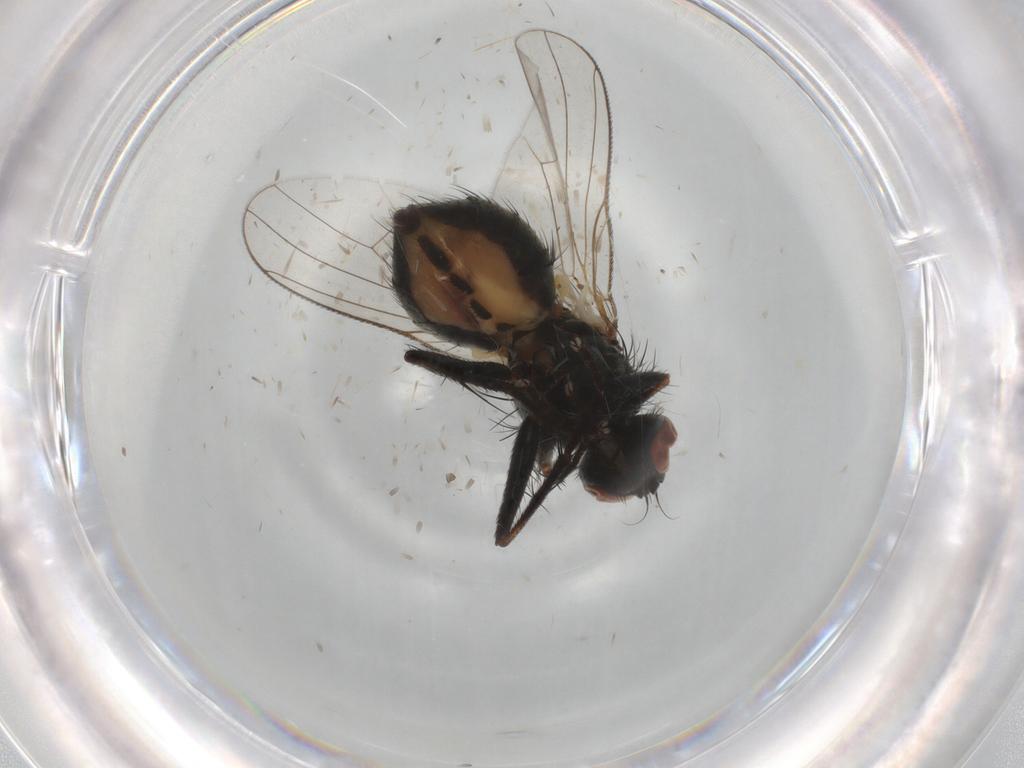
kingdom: Animalia
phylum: Arthropoda
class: Insecta
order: Diptera
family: Muscidae
